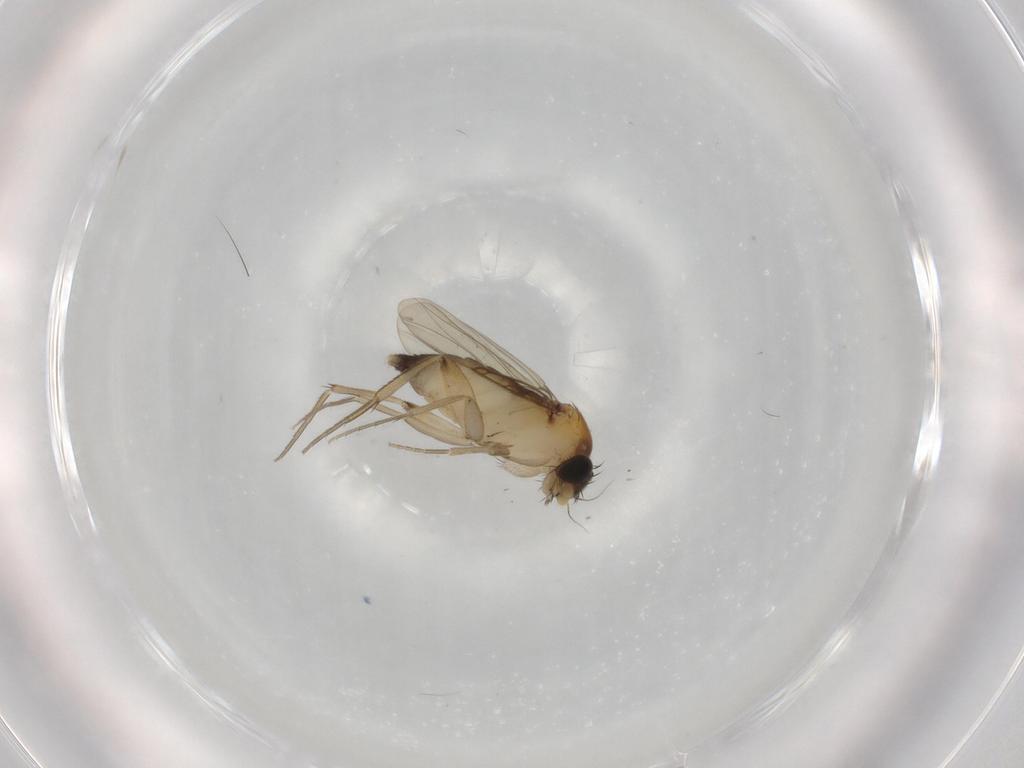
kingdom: Animalia
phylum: Arthropoda
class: Insecta
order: Diptera
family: Phoridae
